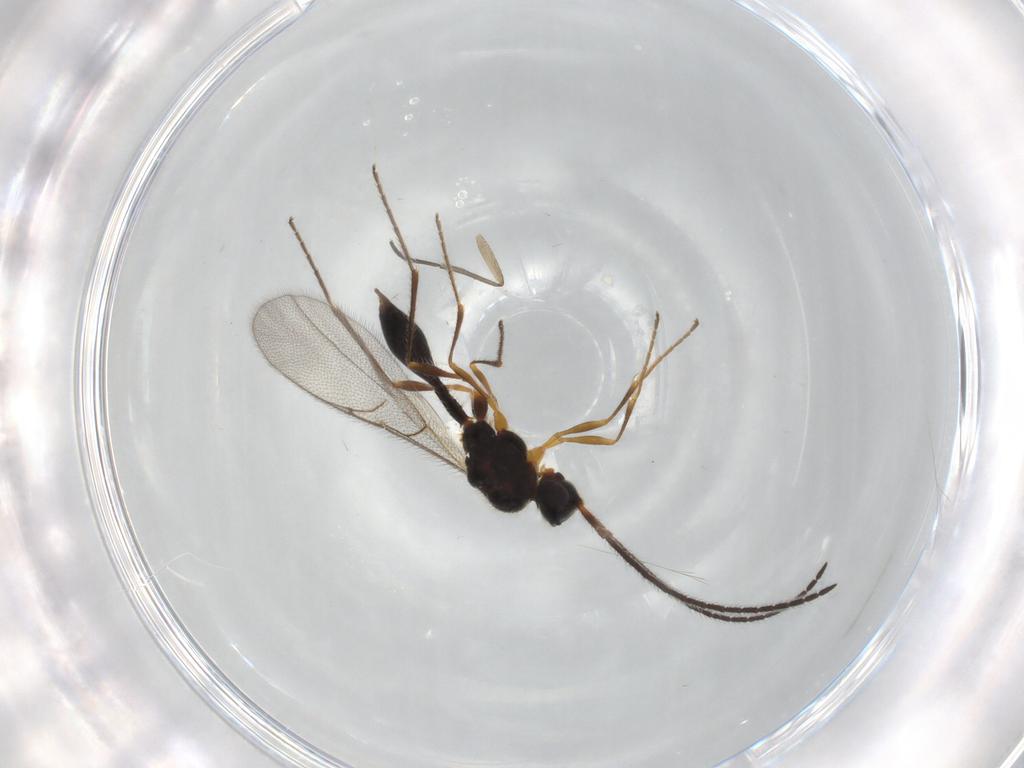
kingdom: Animalia
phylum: Arthropoda
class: Insecta
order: Hymenoptera
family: Diapriidae
